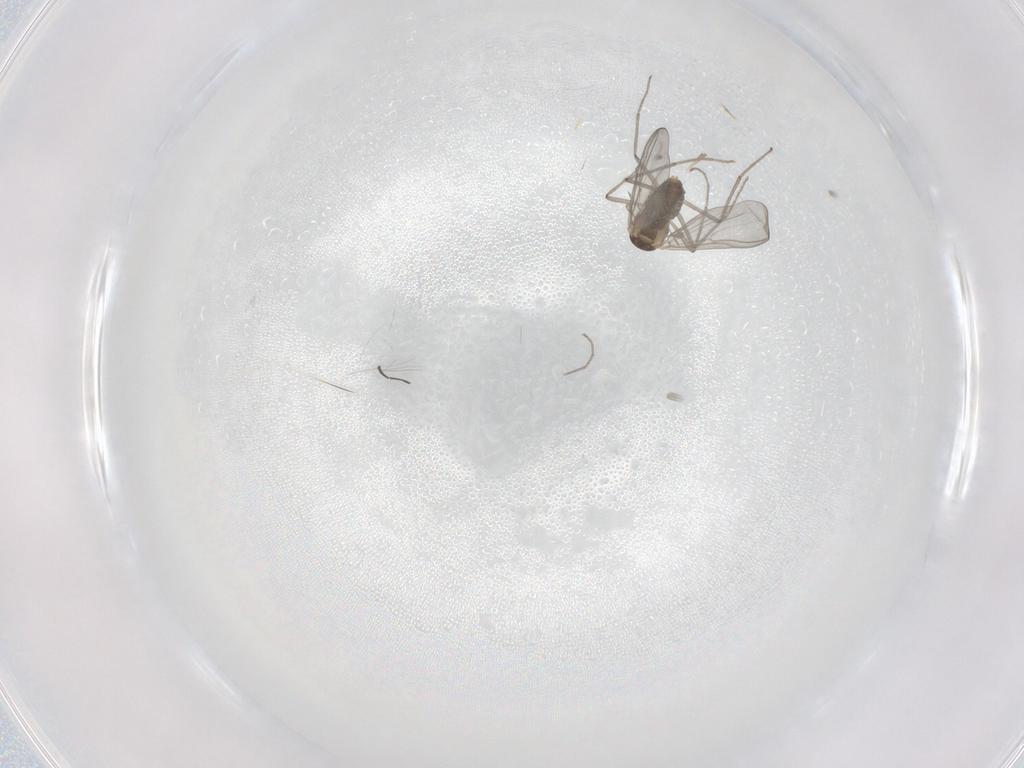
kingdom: Animalia
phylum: Arthropoda
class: Insecta
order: Diptera
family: Chironomidae
